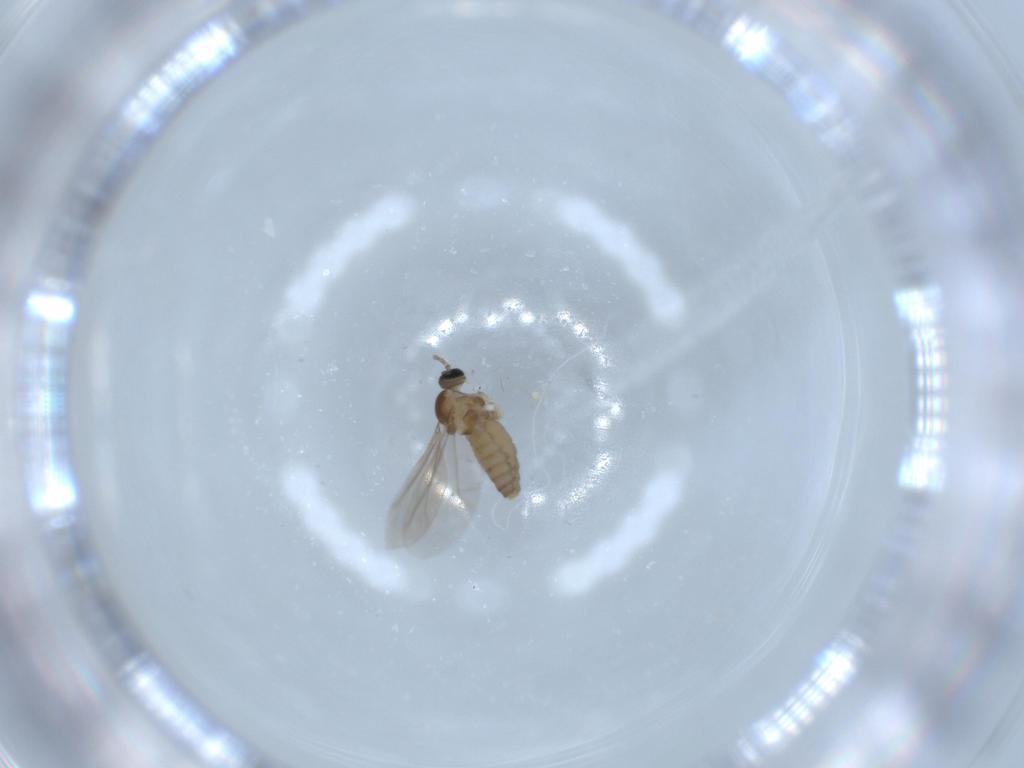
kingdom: Animalia
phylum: Arthropoda
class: Insecta
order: Diptera
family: Cecidomyiidae
